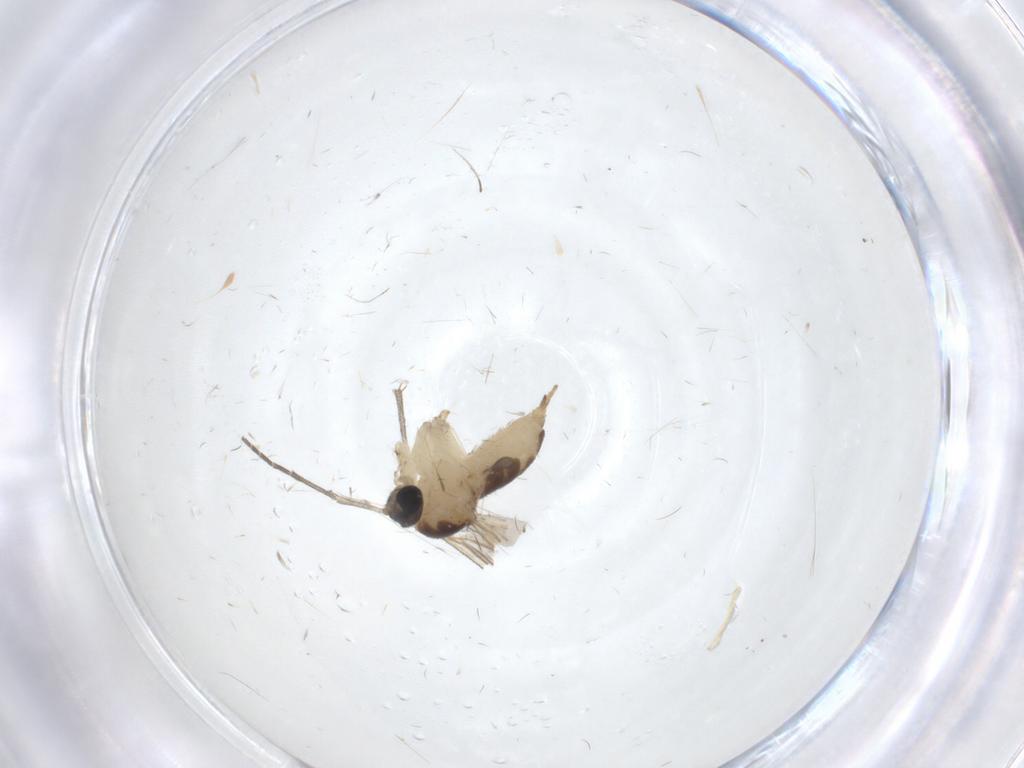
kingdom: Animalia
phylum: Arthropoda
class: Insecta
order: Diptera
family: Sciaridae
